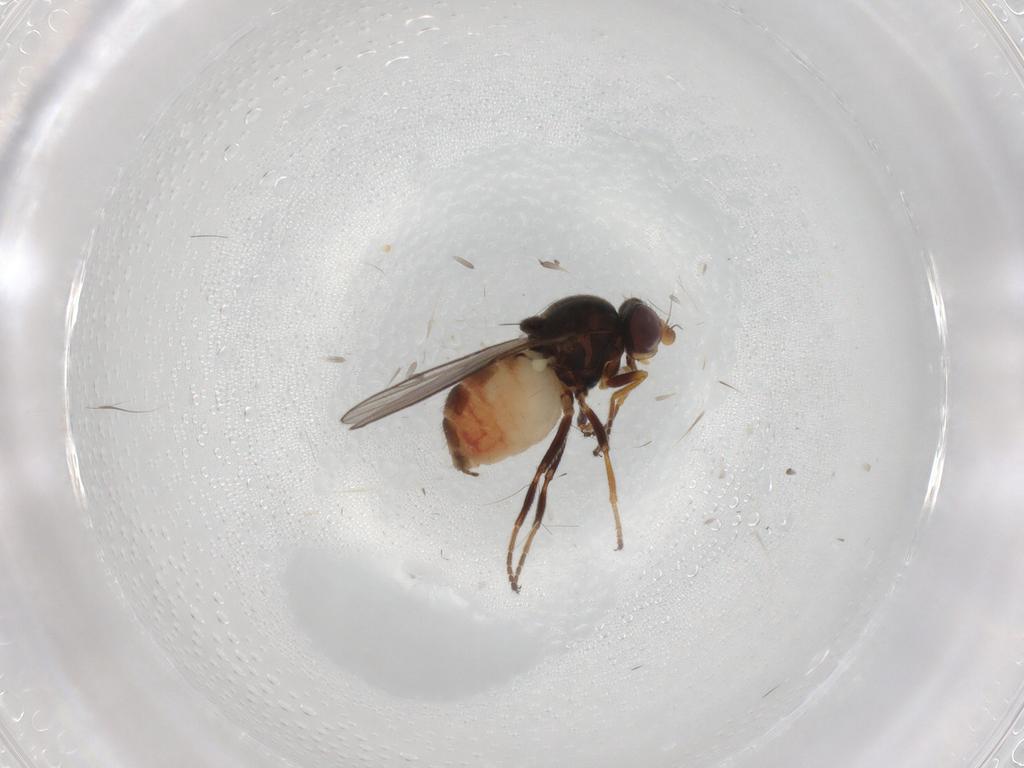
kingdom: Animalia
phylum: Arthropoda
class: Insecta
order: Diptera
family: Chloropidae
